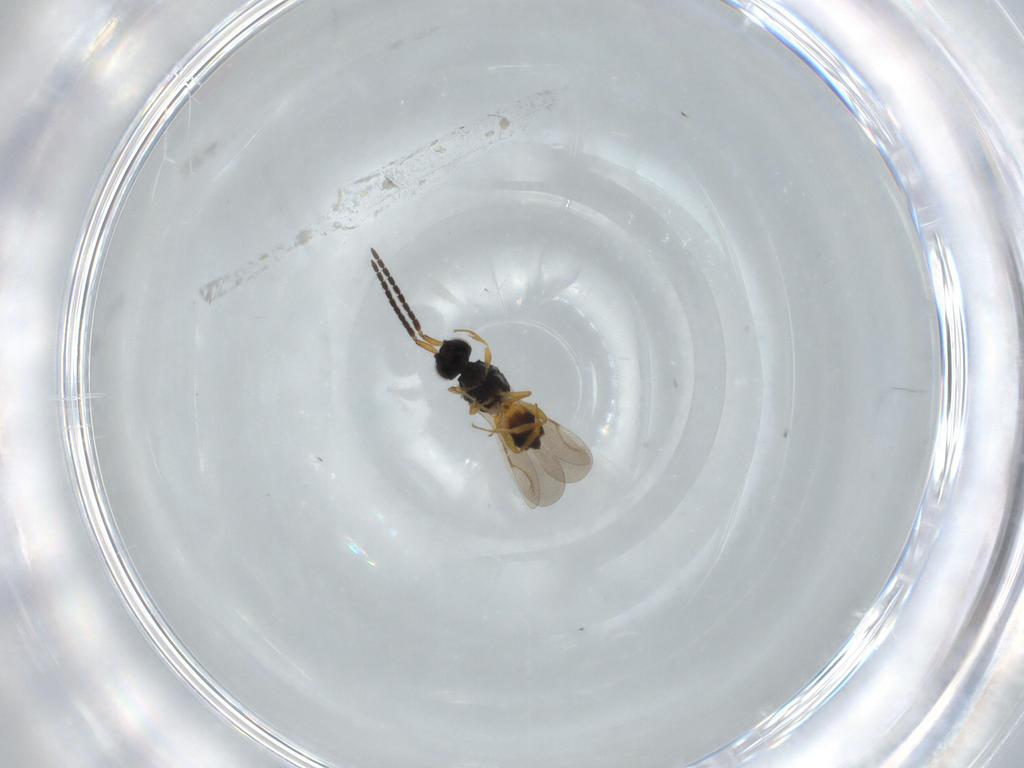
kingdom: Animalia
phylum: Arthropoda
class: Insecta
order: Hymenoptera
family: Ceraphronidae
